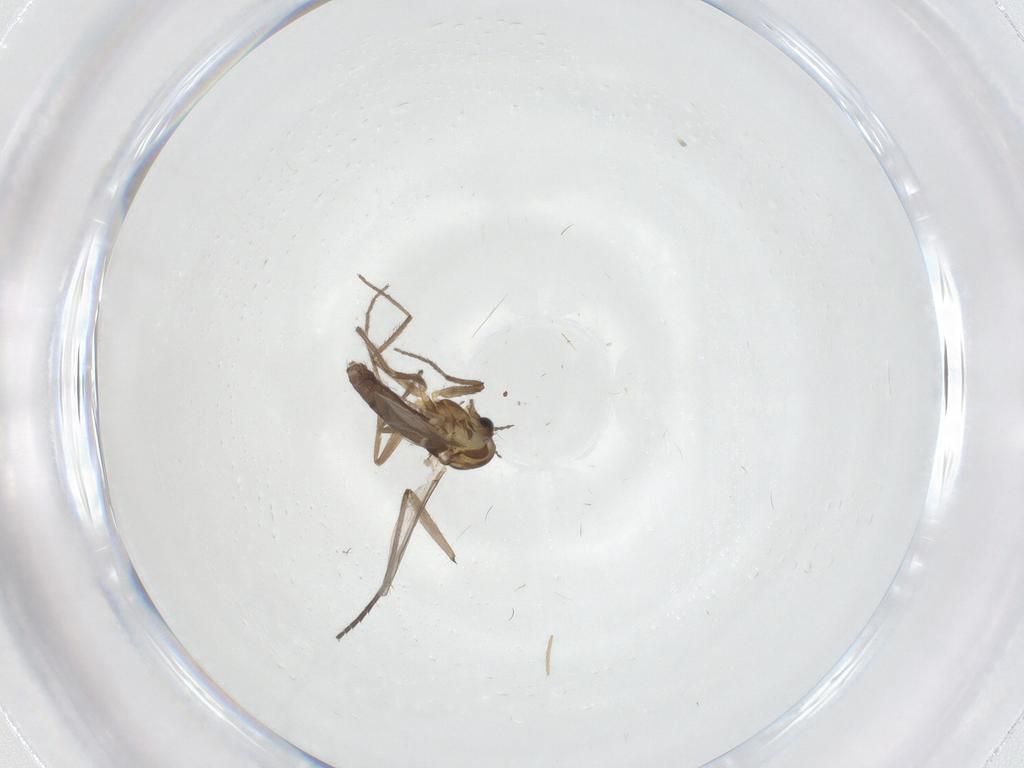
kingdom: Animalia
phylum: Arthropoda
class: Insecta
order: Diptera
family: Chironomidae
